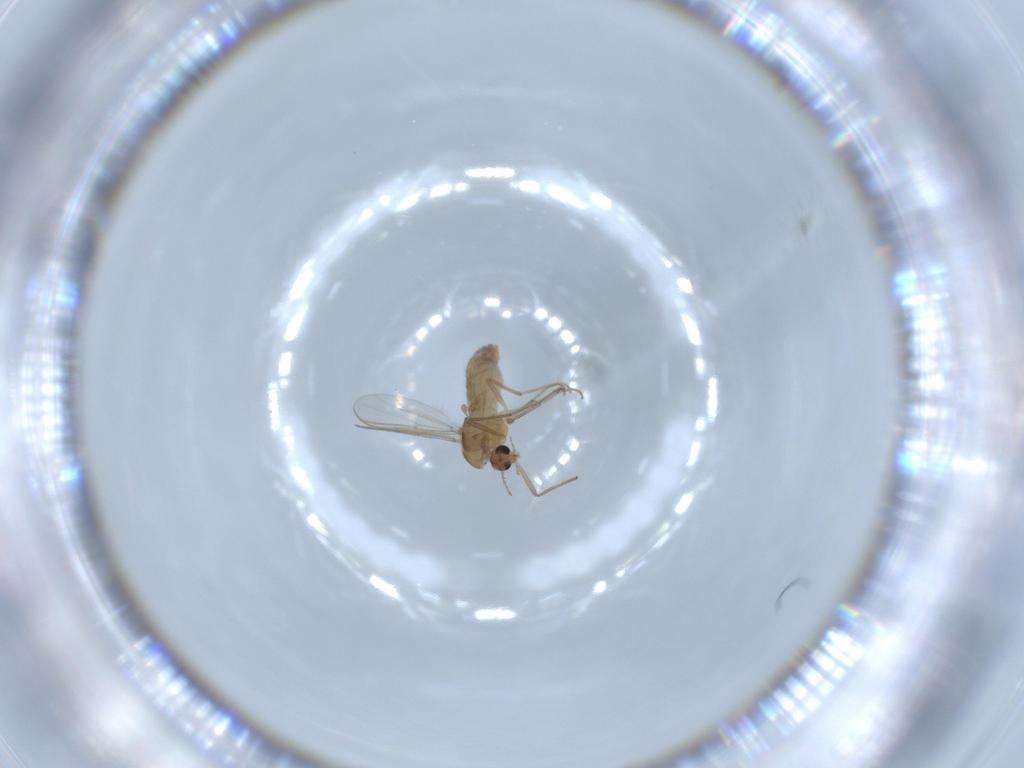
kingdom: Animalia
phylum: Arthropoda
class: Insecta
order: Diptera
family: Chironomidae
